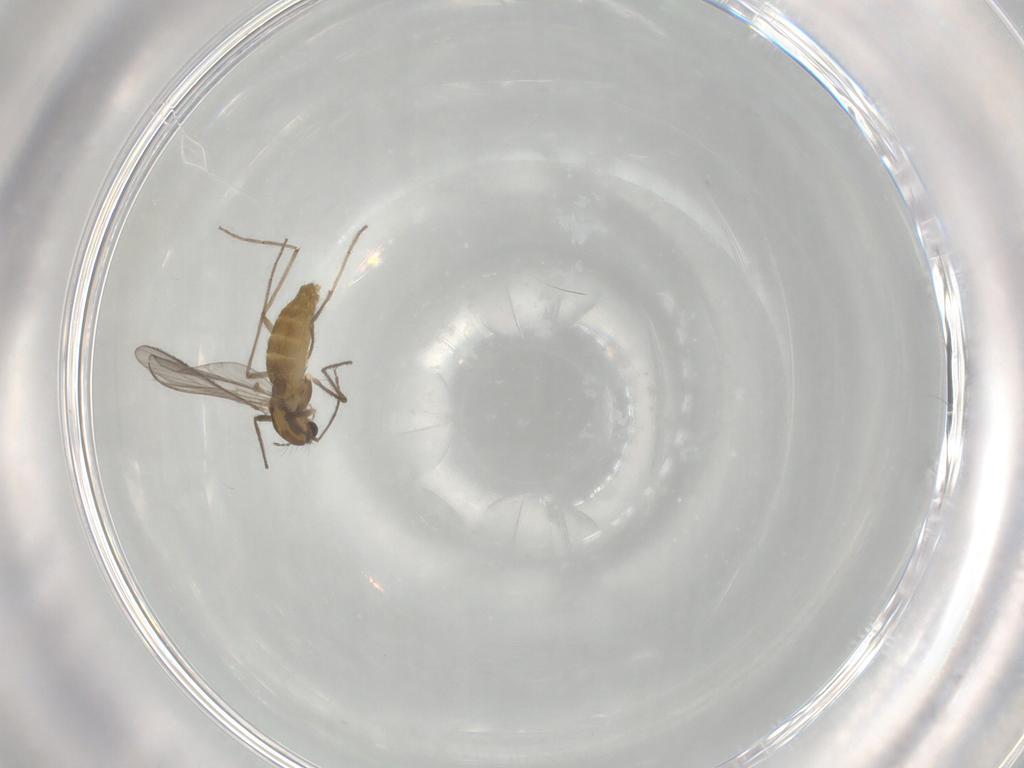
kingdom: Animalia
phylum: Arthropoda
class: Insecta
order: Diptera
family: Chironomidae
